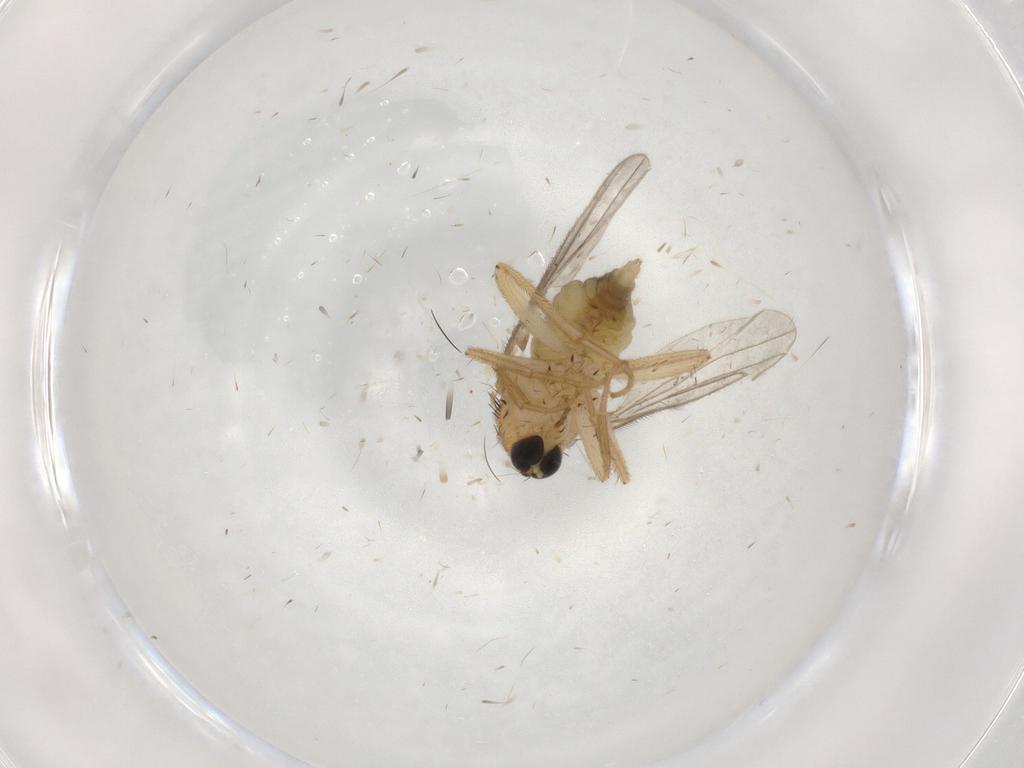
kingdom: Animalia
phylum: Arthropoda
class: Insecta
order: Diptera
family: Hybotidae
